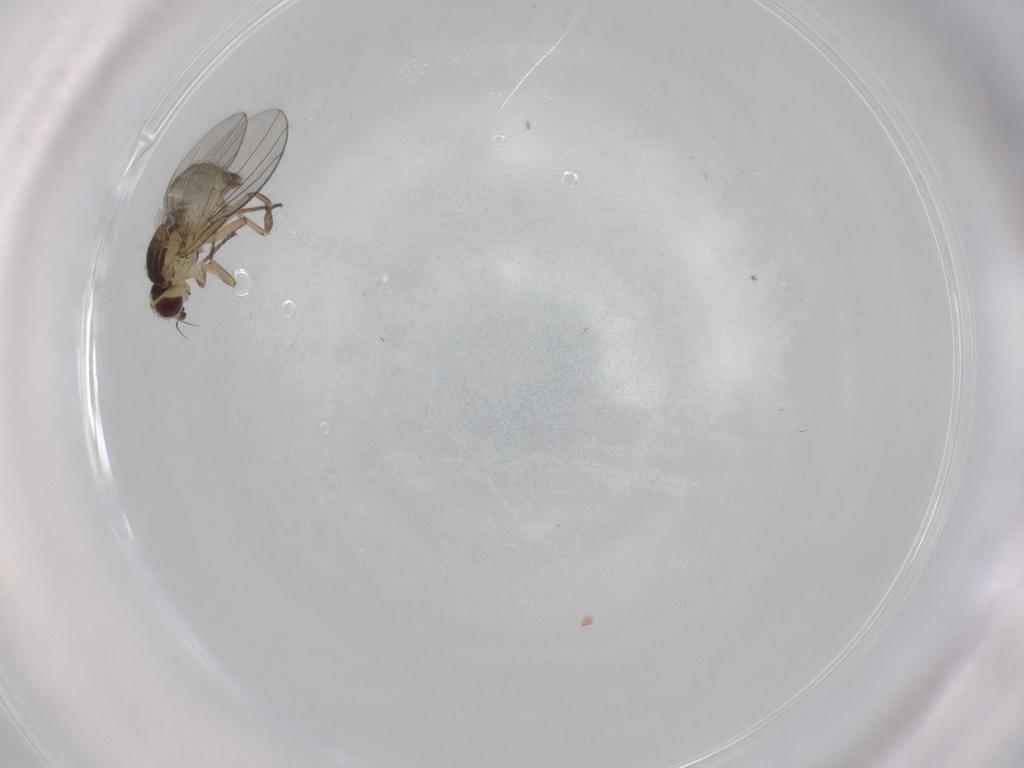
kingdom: Animalia
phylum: Arthropoda
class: Insecta
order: Diptera
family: Agromyzidae
